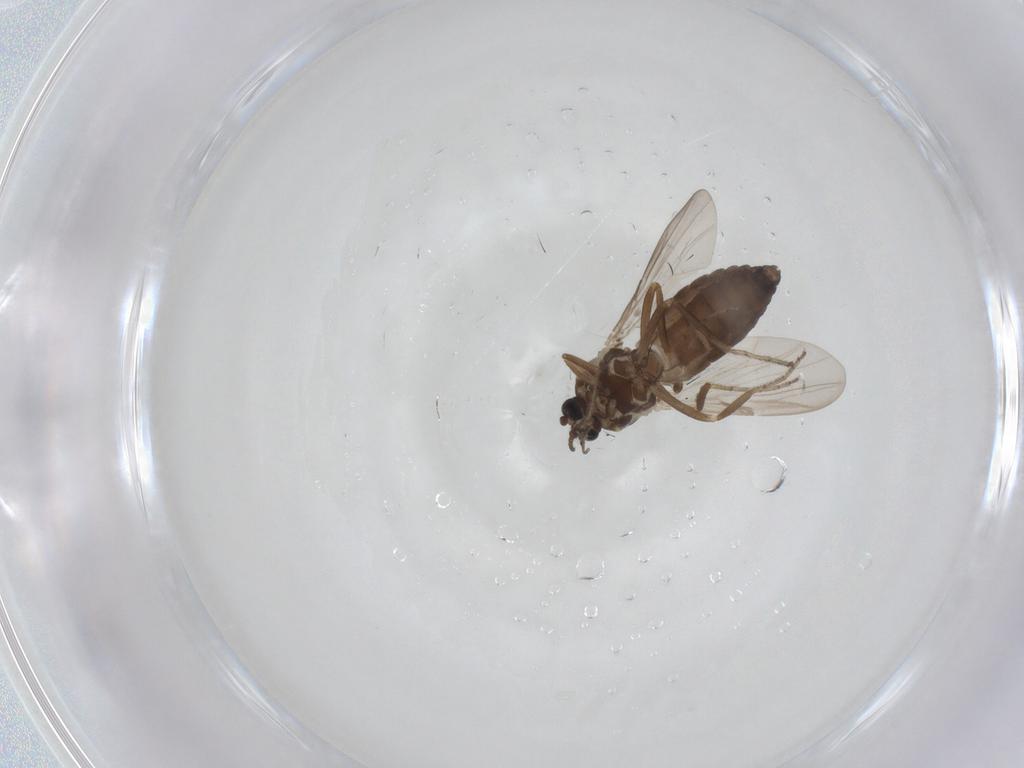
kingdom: Animalia
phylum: Arthropoda
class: Insecta
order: Diptera
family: Ceratopogonidae
